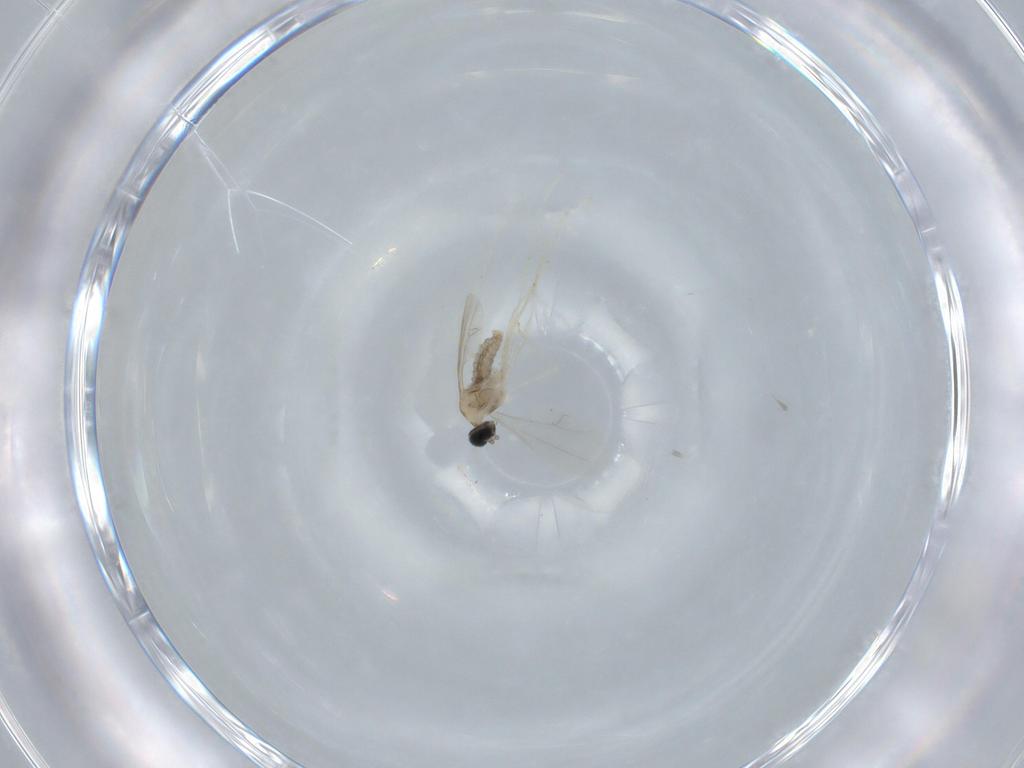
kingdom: Animalia
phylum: Arthropoda
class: Insecta
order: Diptera
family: Cecidomyiidae
